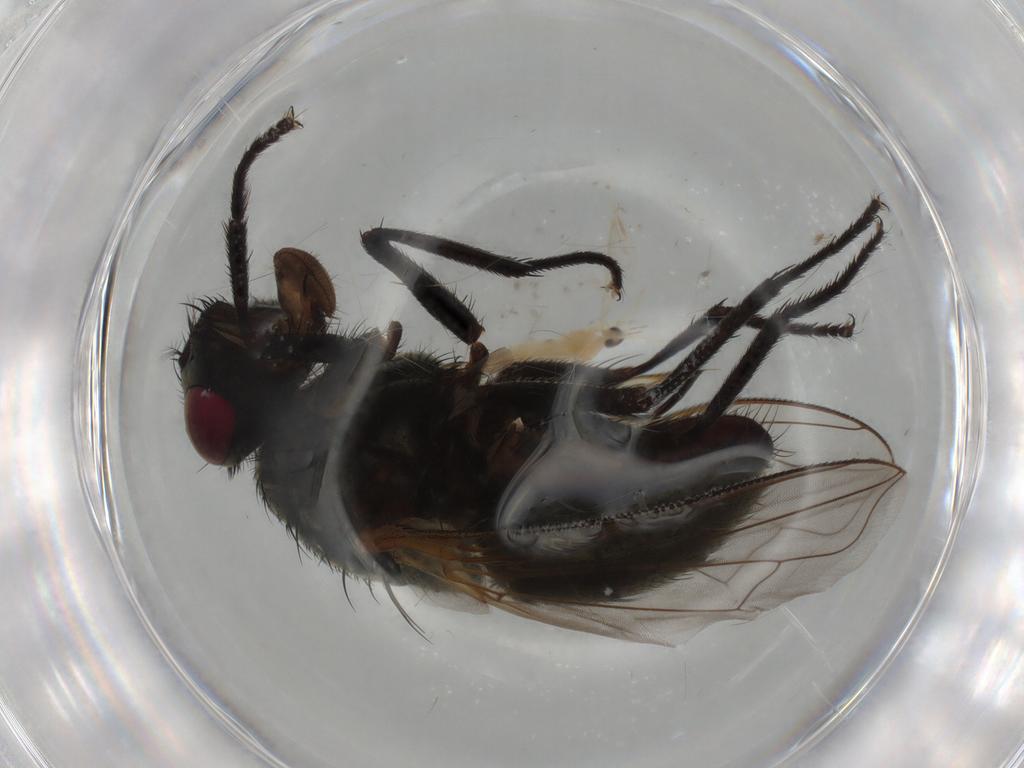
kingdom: Animalia
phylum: Arthropoda
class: Insecta
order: Diptera
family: Muscidae
